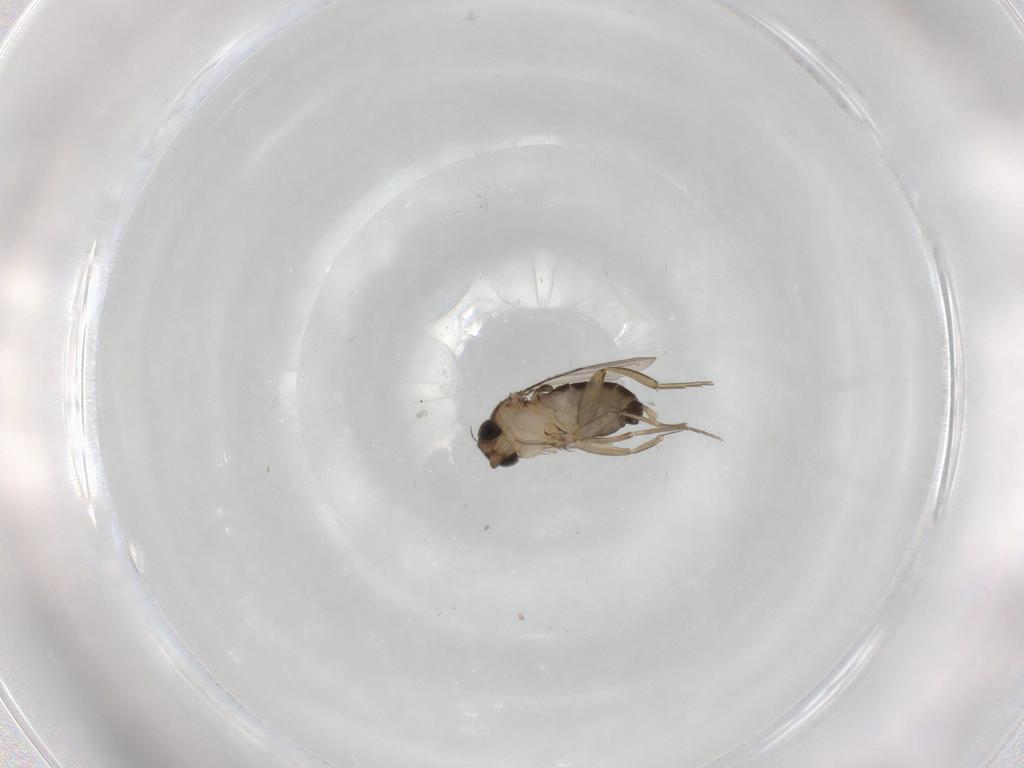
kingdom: Animalia
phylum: Arthropoda
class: Insecta
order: Diptera
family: Phoridae
